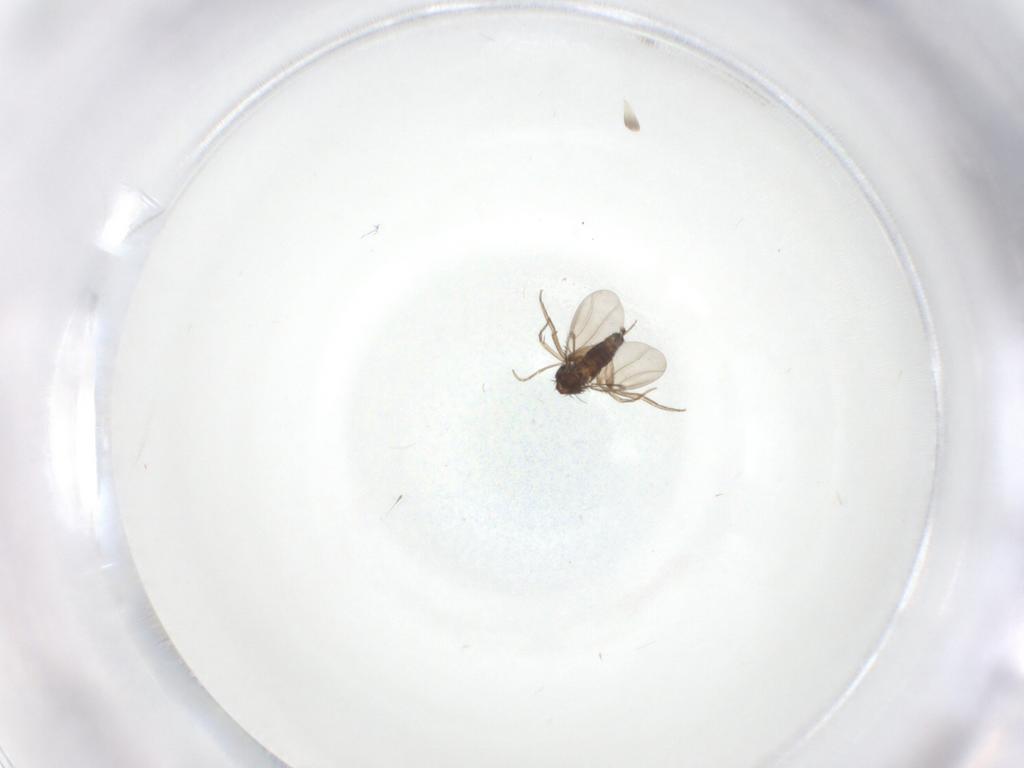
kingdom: Animalia
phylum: Arthropoda
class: Insecta
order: Diptera
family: Phoridae
